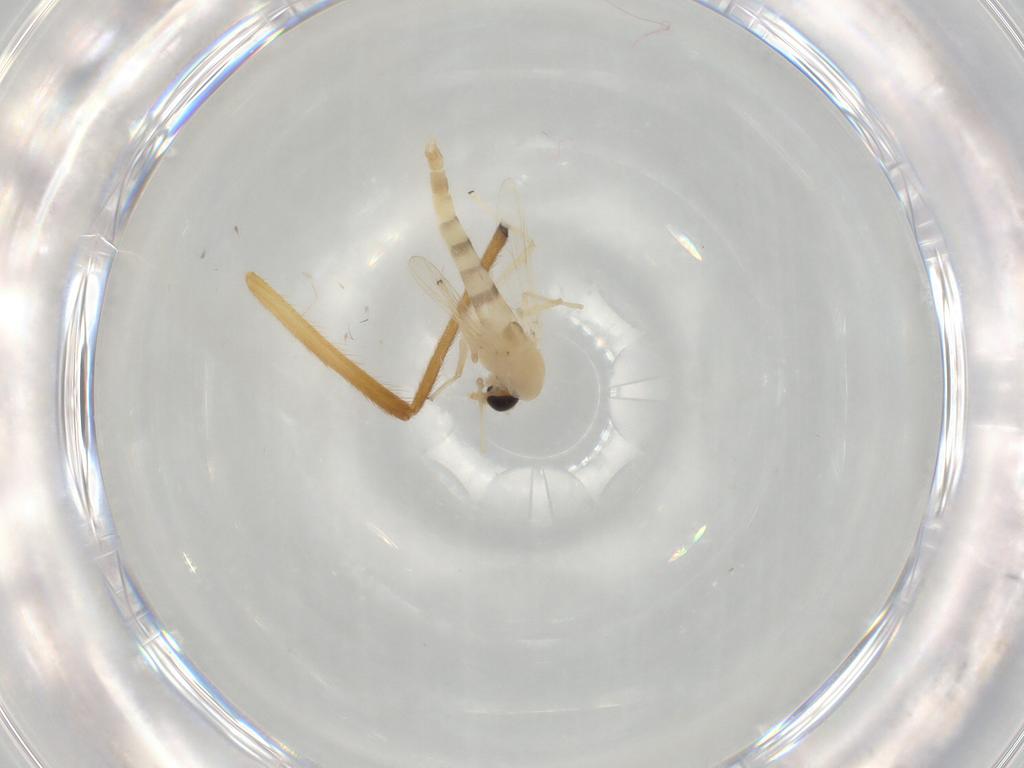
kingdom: Animalia
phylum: Arthropoda
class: Insecta
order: Diptera
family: Chironomidae
